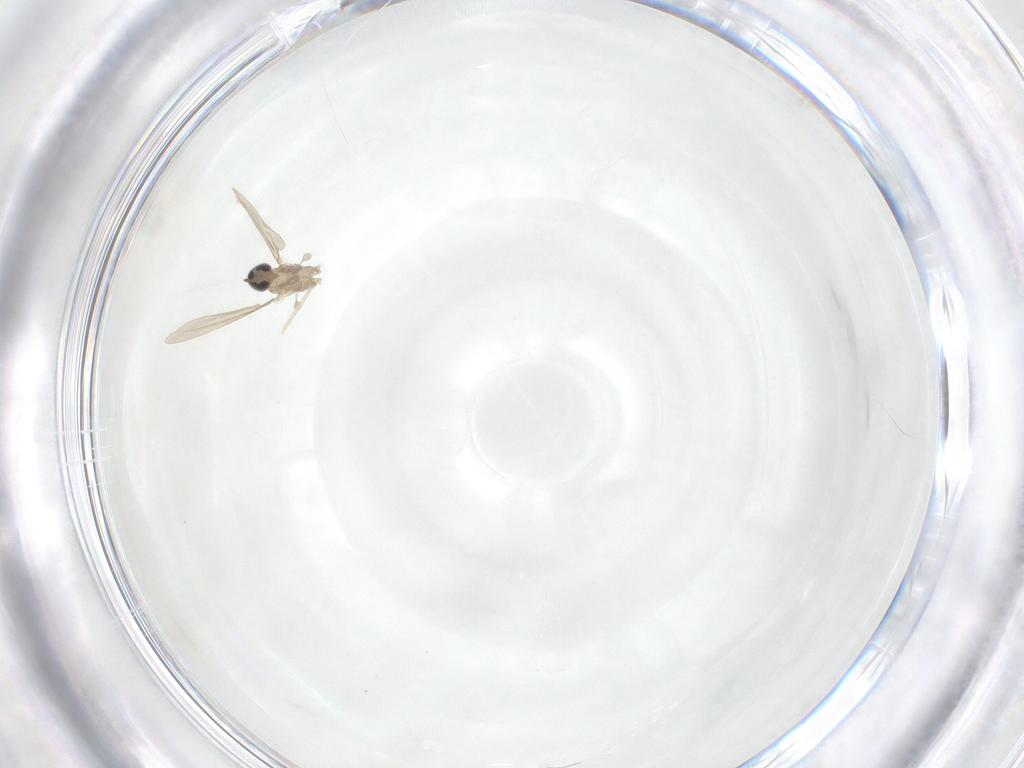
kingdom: Animalia
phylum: Arthropoda
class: Insecta
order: Diptera
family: Cecidomyiidae
